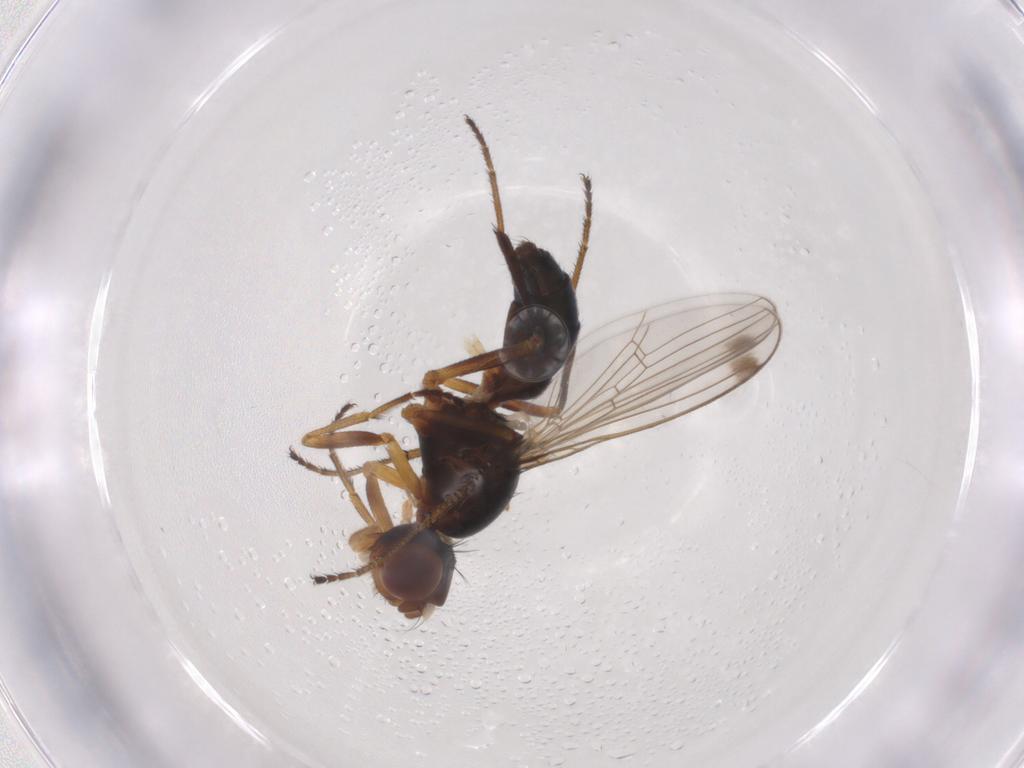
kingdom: Animalia
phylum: Arthropoda
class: Insecta
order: Diptera
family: Sepsidae
